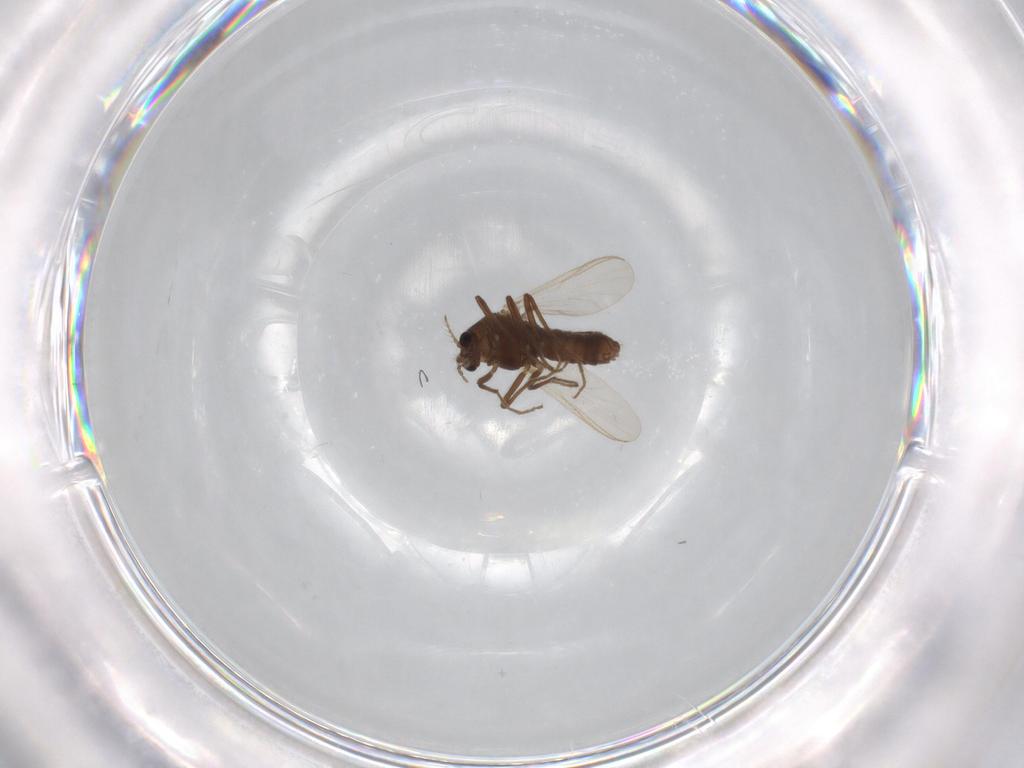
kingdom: Animalia
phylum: Arthropoda
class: Insecta
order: Diptera
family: Chironomidae
